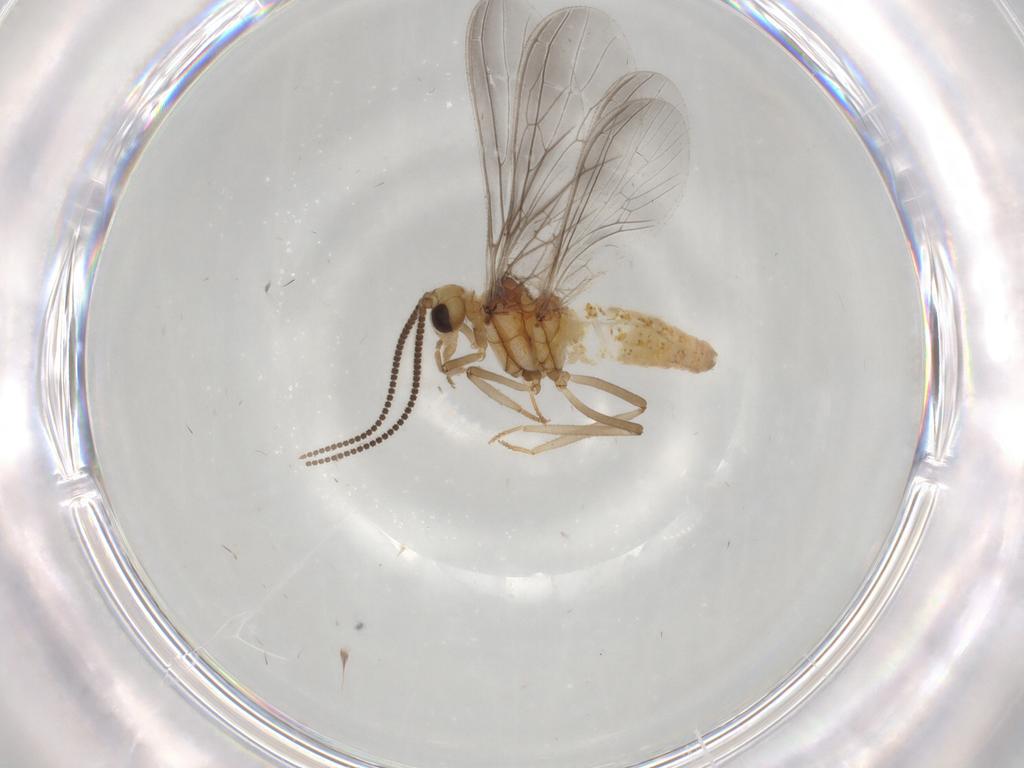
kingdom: Animalia
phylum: Arthropoda
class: Insecta
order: Neuroptera
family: Coniopterygidae
